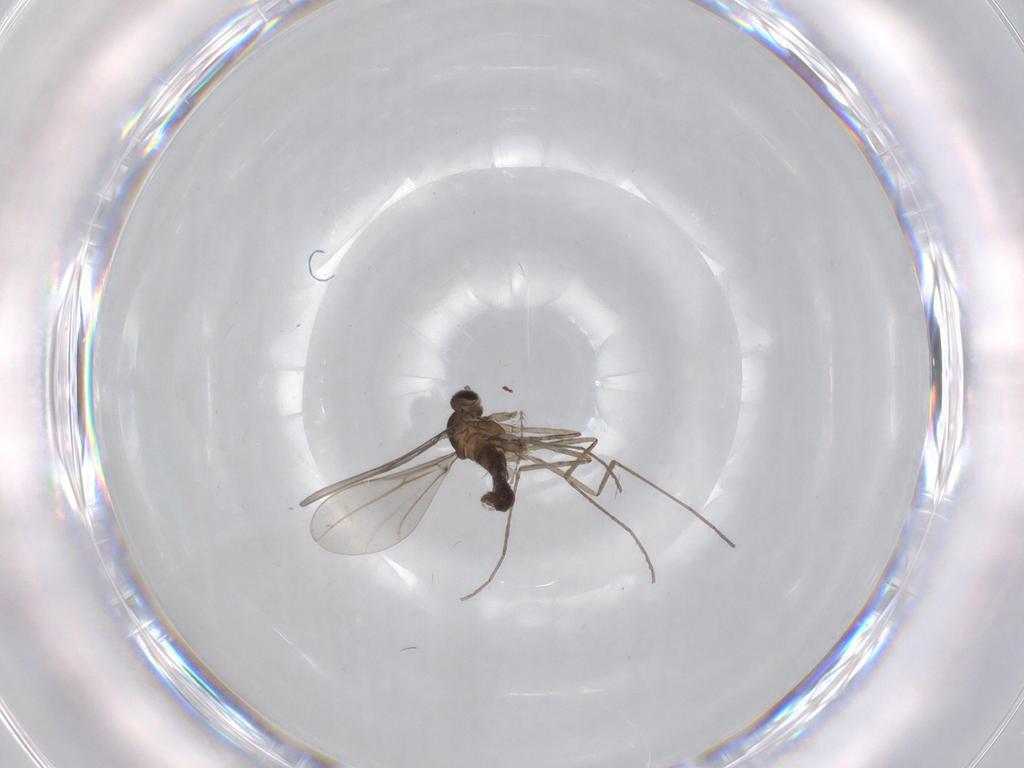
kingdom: Animalia
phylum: Arthropoda
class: Insecta
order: Diptera
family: Cecidomyiidae
